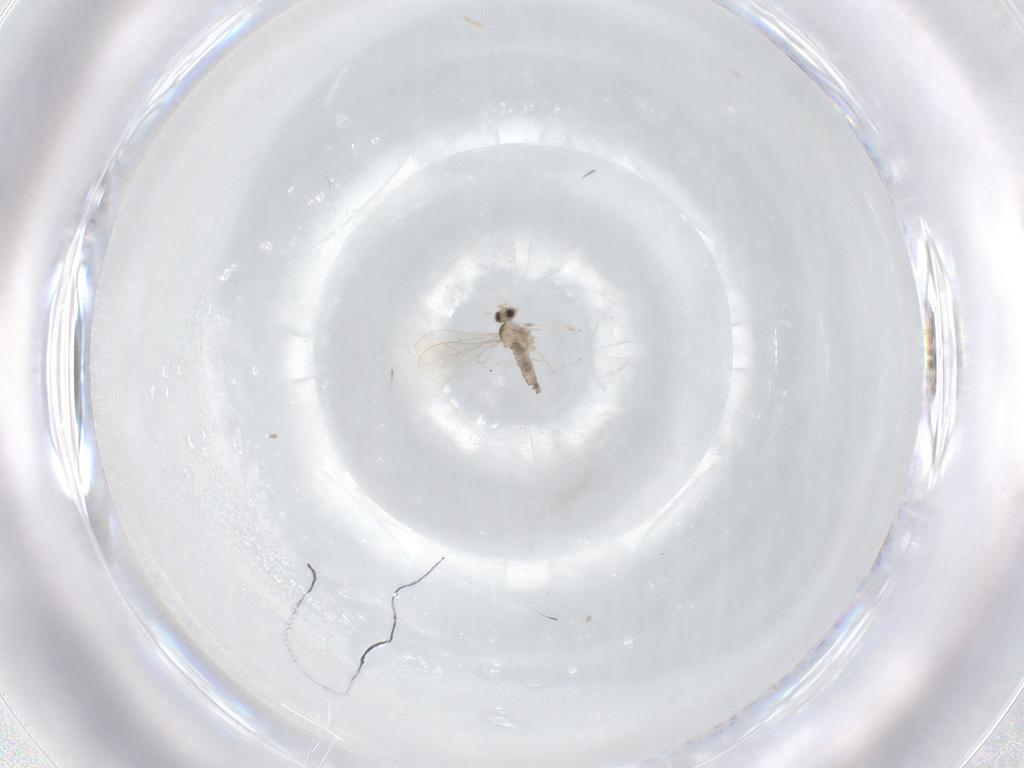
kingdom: Animalia
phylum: Arthropoda
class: Insecta
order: Diptera
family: Cecidomyiidae
